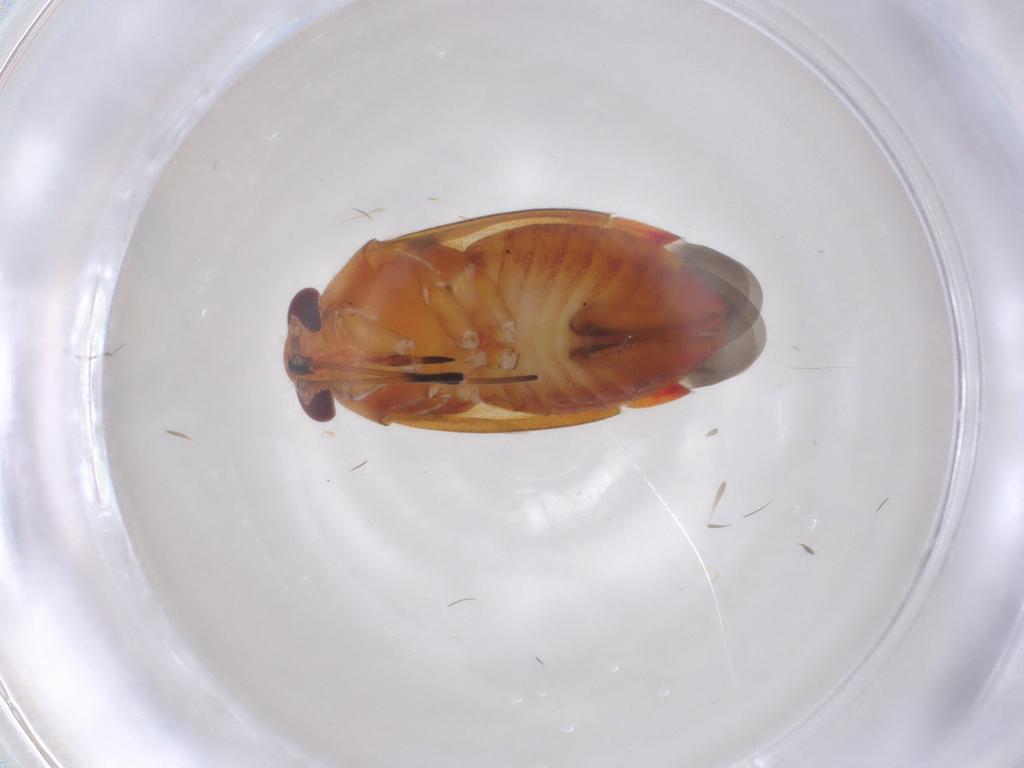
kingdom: Animalia
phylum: Arthropoda
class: Insecta
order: Hemiptera
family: Miridae
